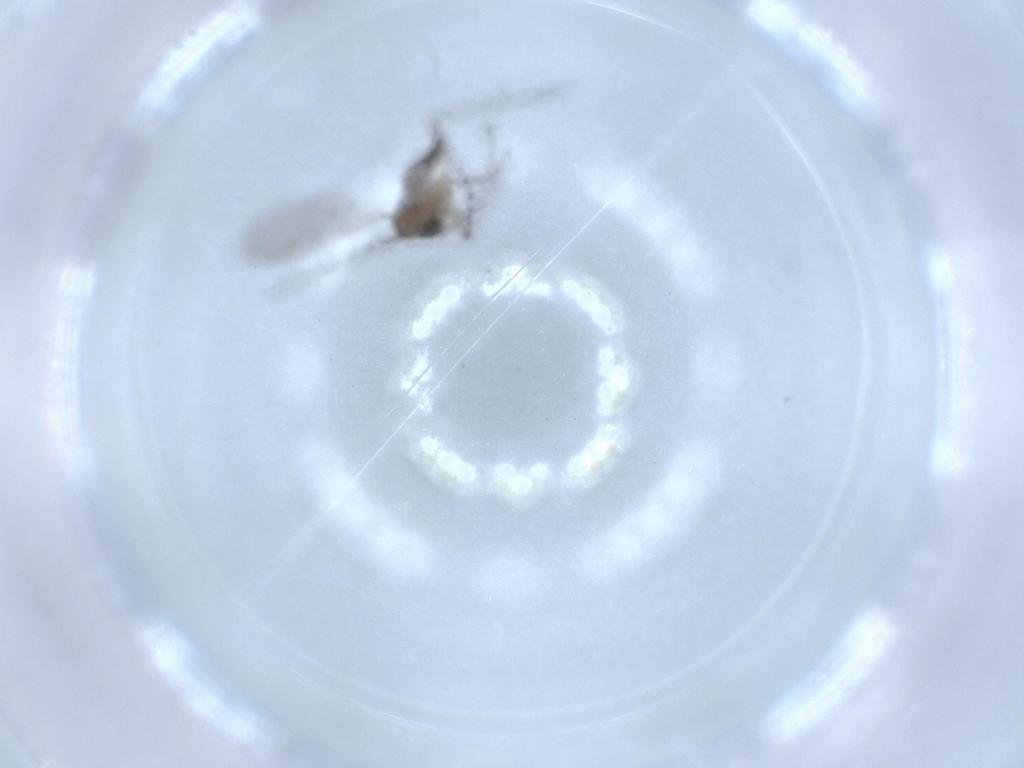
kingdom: Animalia
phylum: Arthropoda
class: Insecta
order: Diptera
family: Sciaridae
